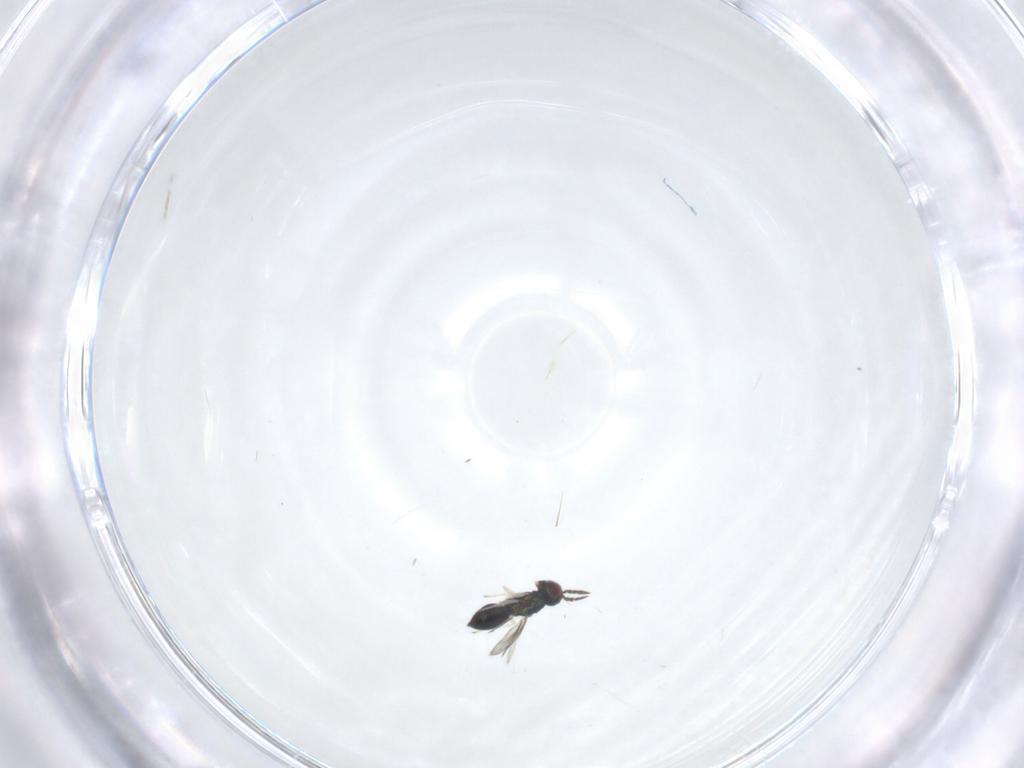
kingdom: Animalia
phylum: Arthropoda
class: Insecta
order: Hymenoptera
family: Eulophidae
